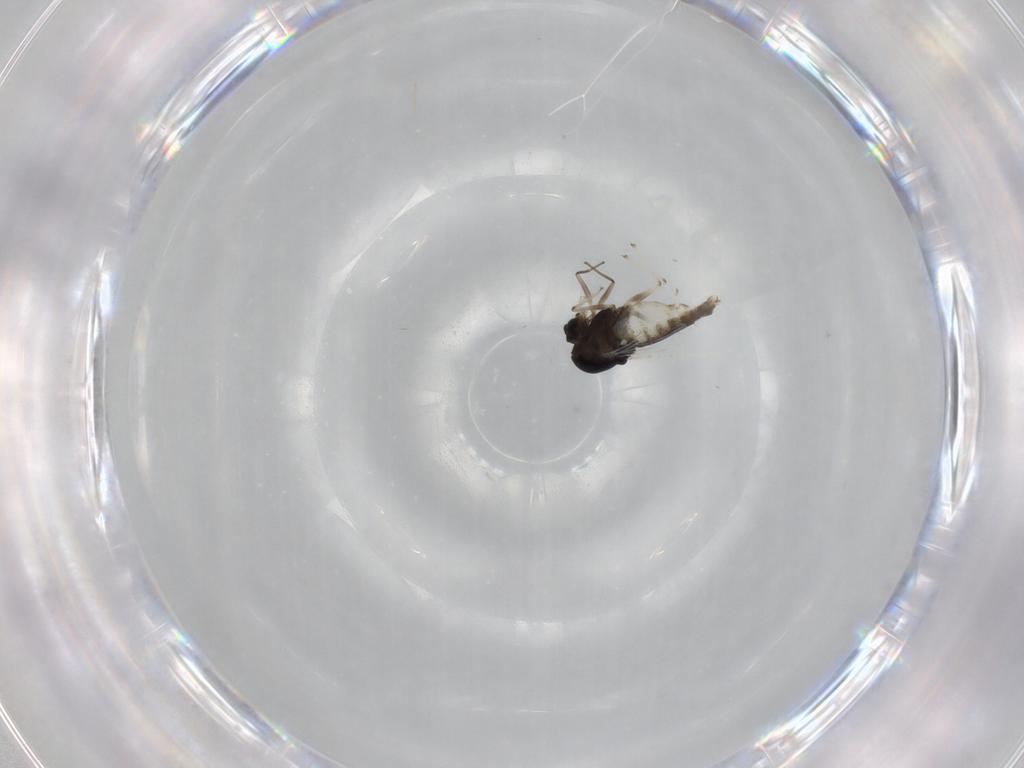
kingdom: Animalia
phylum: Arthropoda
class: Insecta
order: Diptera
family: Chironomidae
